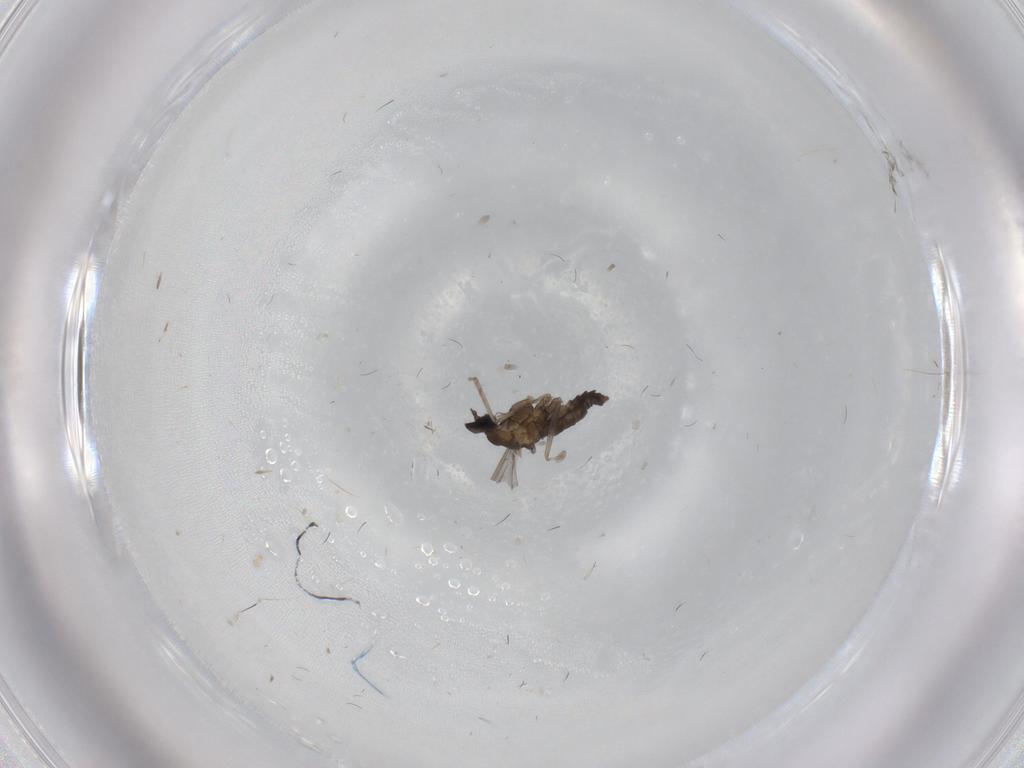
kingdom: Animalia
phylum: Arthropoda
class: Insecta
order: Diptera
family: Cecidomyiidae
